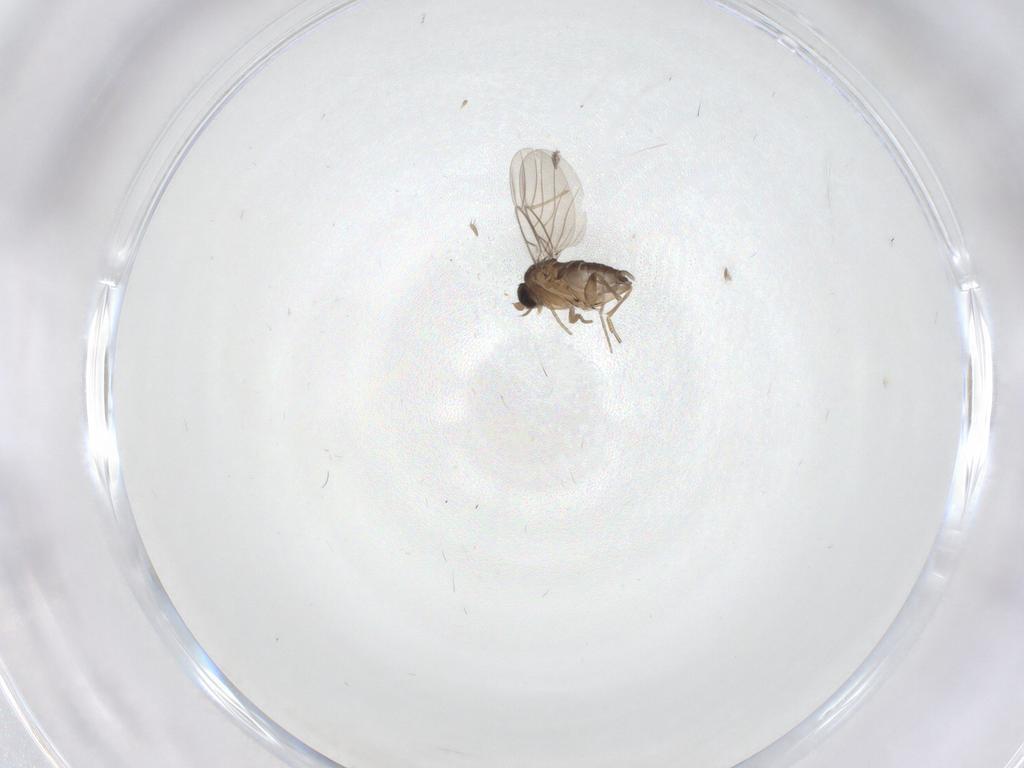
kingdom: Animalia
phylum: Arthropoda
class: Insecta
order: Diptera
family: Phoridae
